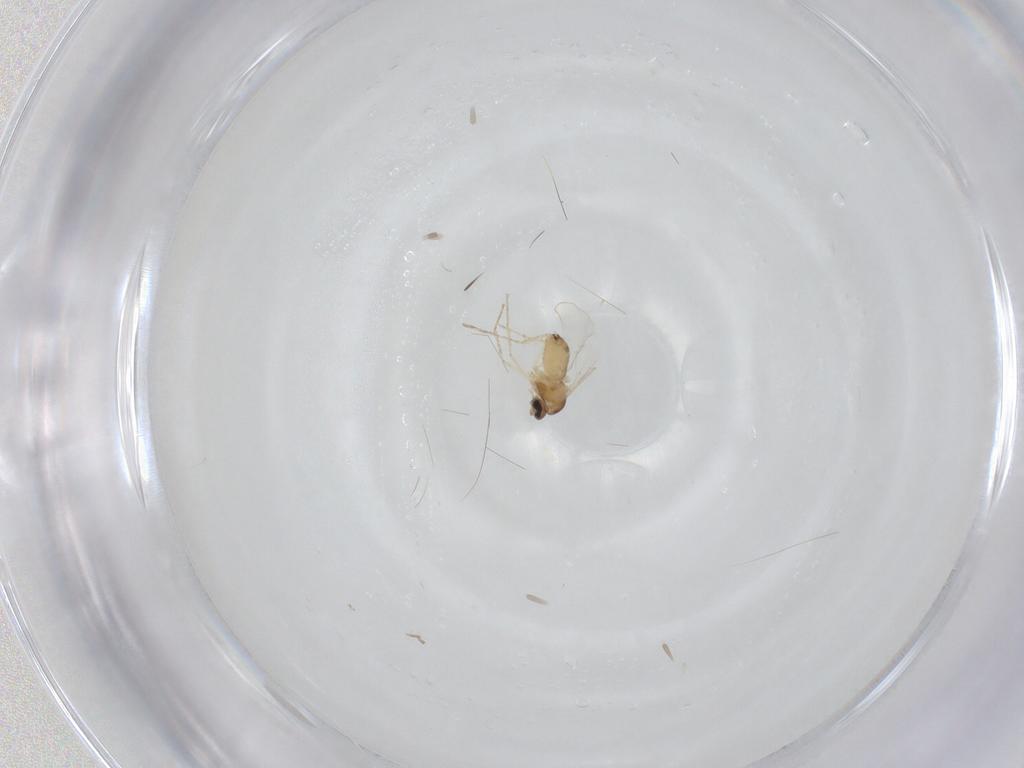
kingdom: Animalia
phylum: Arthropoda
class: Insecta
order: Diptera
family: Cecidomyiidae
